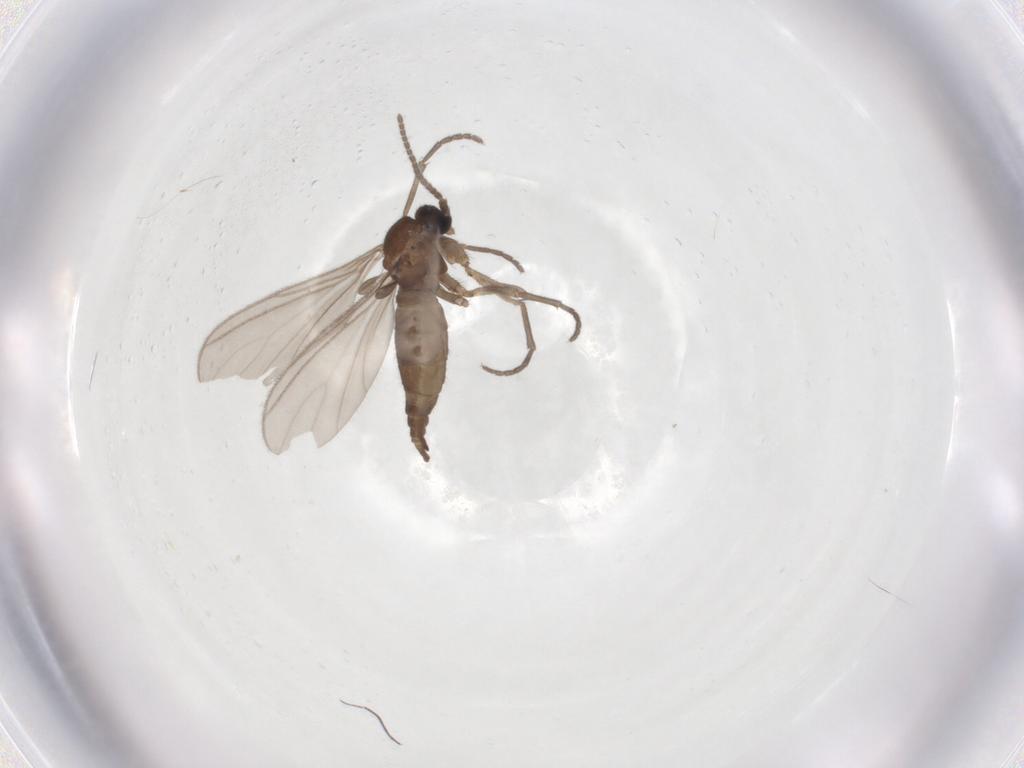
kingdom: Animalia
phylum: Arthropoda
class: Insecta
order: Diptera
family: Sciaridae
